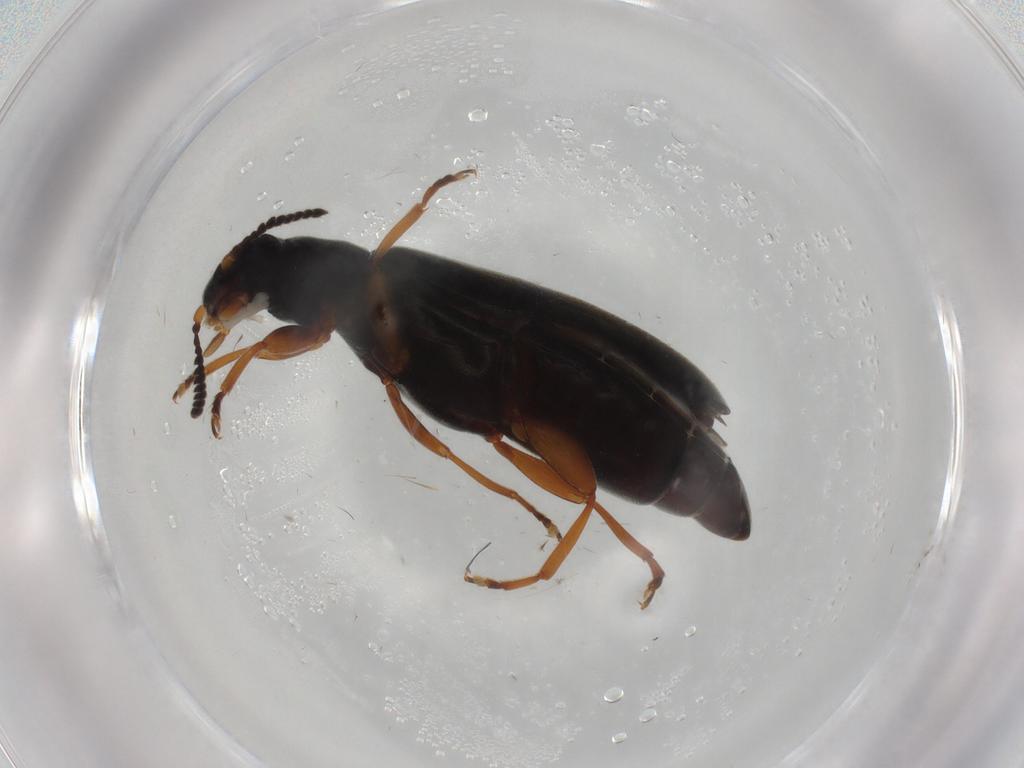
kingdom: Animalia
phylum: Arthropoda
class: Insecta
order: Coleoptera
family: Mycteridae
